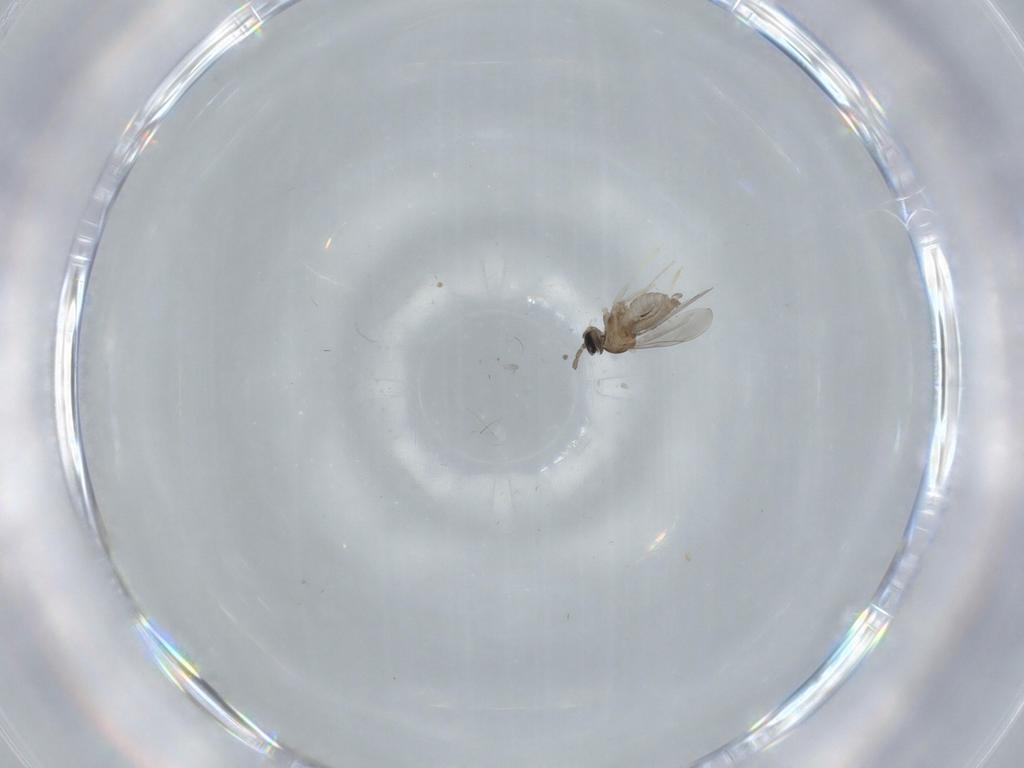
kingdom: Animalia
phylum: Arthropoda
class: Insecta
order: Diptera
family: Cecidomyiidae
